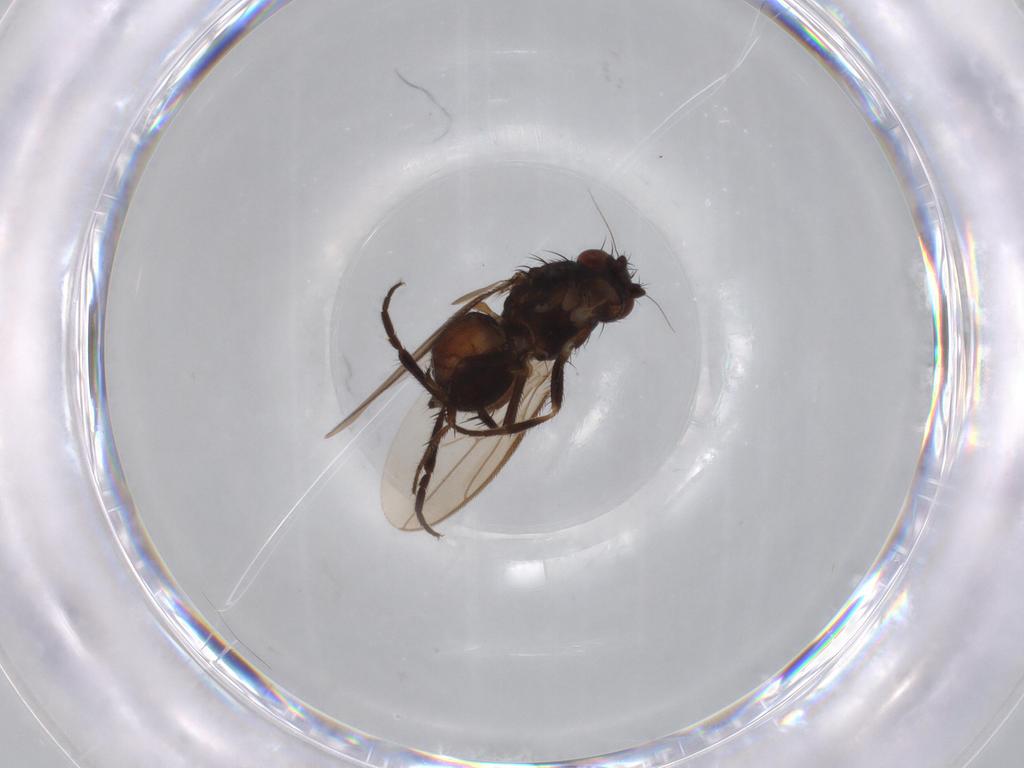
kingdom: Animalia
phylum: Arthropoda
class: Insecta
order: Diptera
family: Sphaeroceridae
